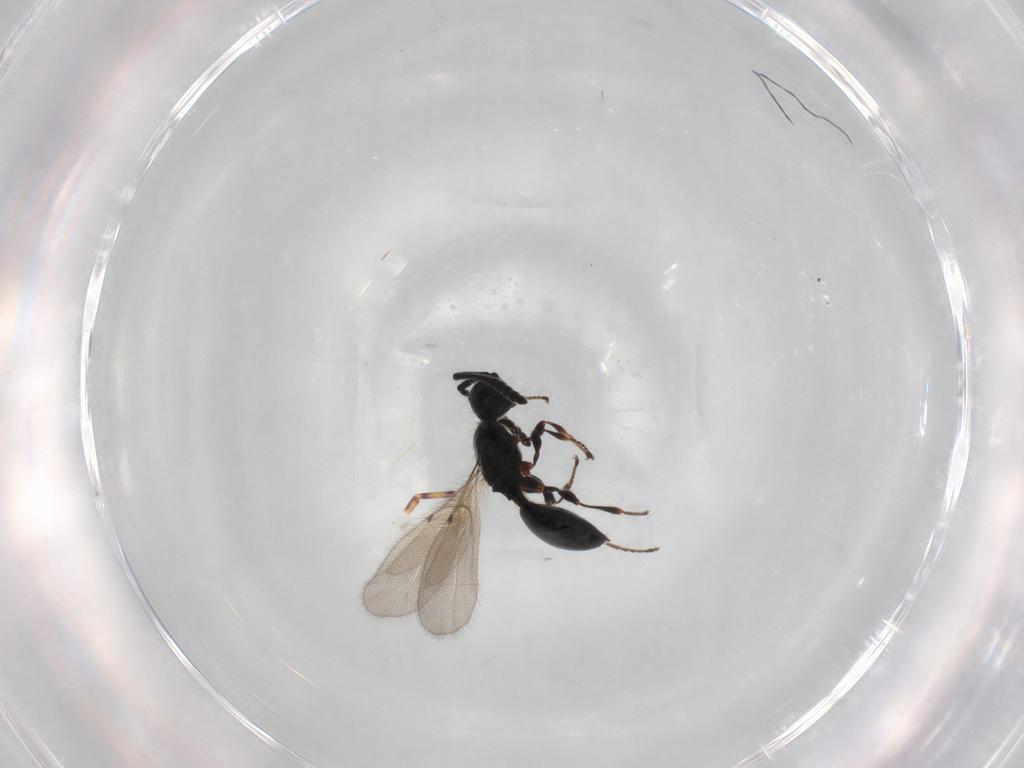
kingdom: Animalia
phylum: Arthropoda
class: Insecta
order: Hymenoptera
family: Diapriidae
